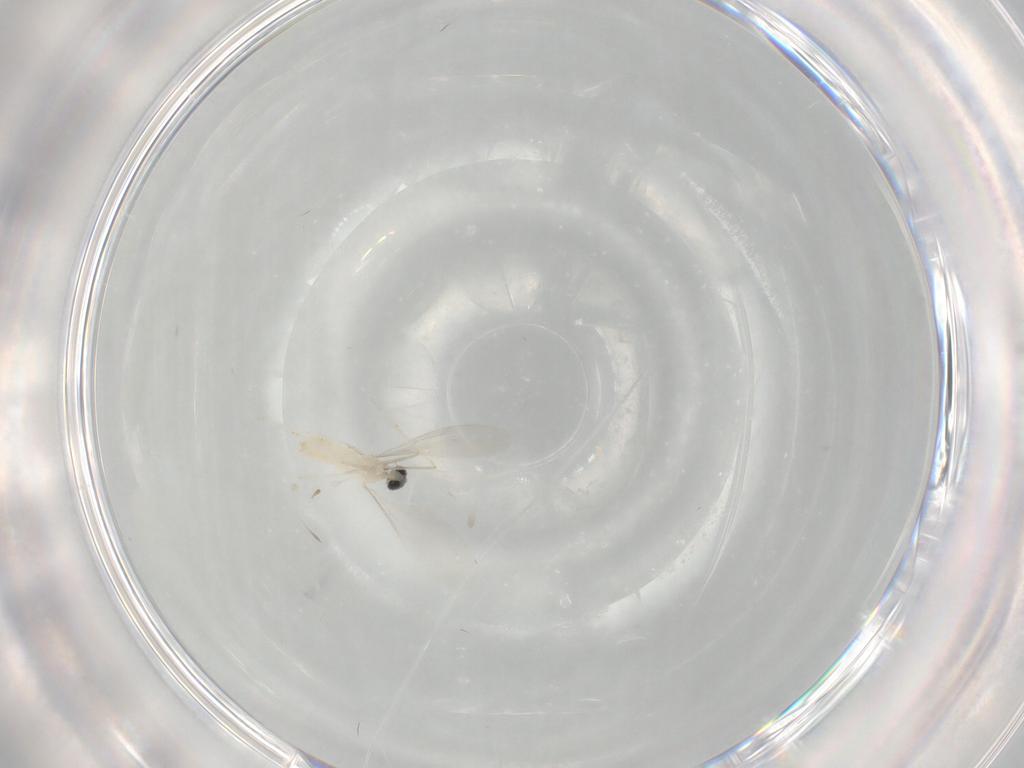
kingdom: Animalia
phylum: Arthropoda
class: Insecta
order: Diptera
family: Cecidomyiidae
